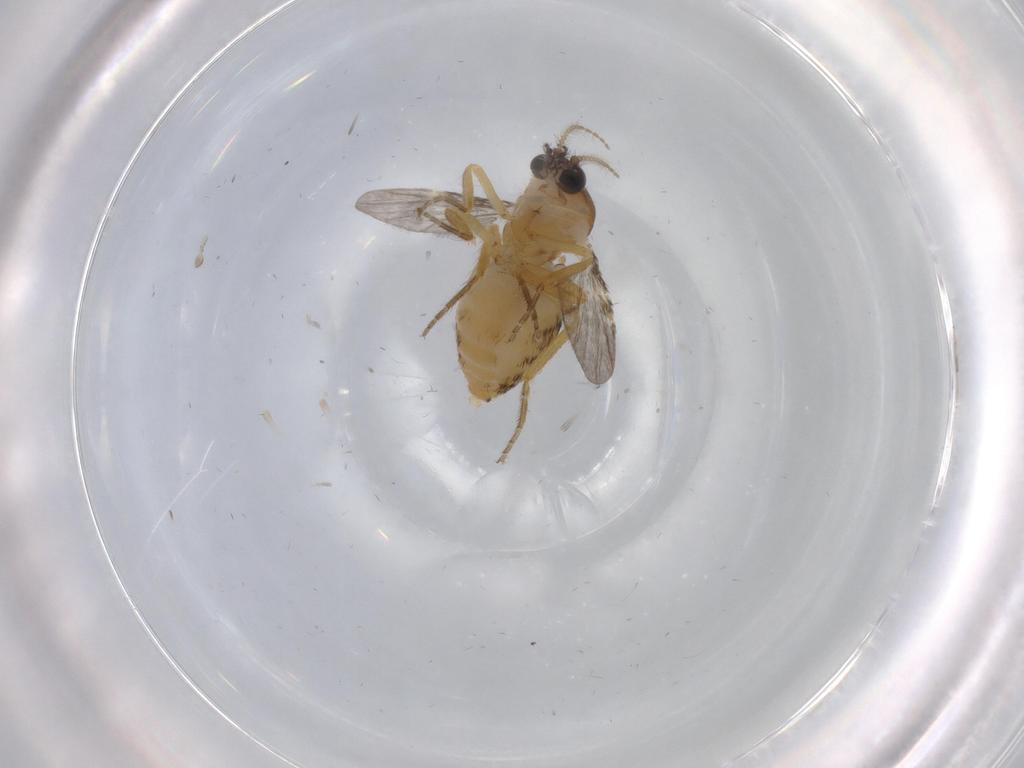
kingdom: Animalia
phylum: Arthropoda
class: Insecta
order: Diptera
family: Ceratopogonidae
